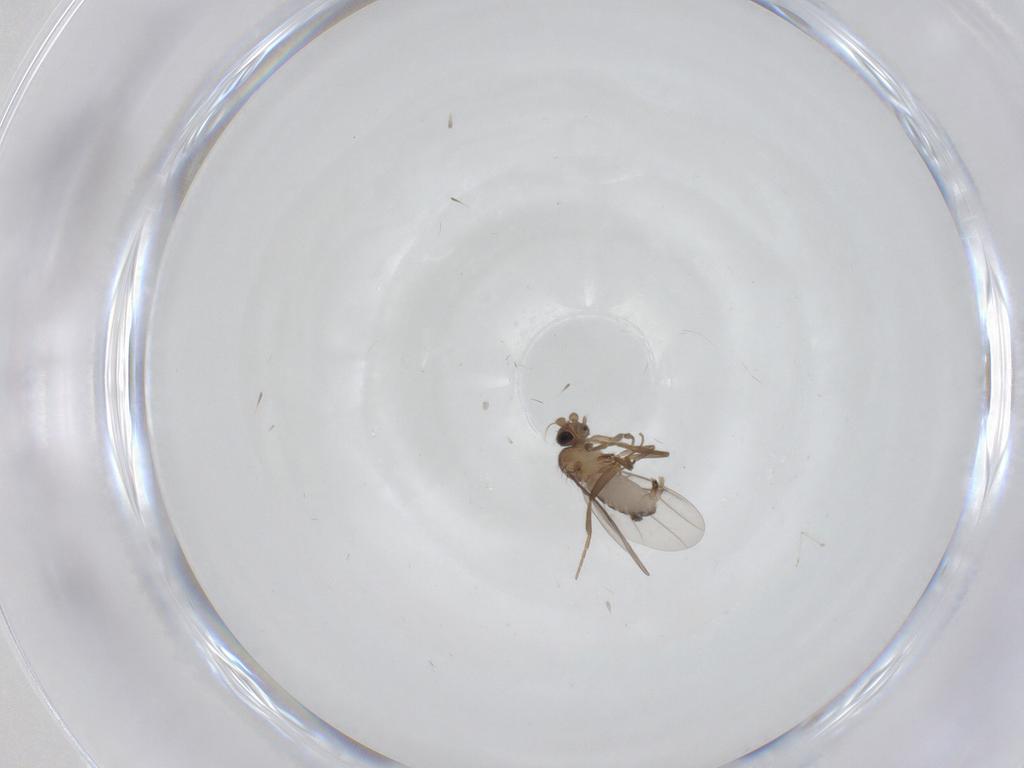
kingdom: Animalia
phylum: Arthropoda
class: Insecta
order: Diptera
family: Cecidomyiidae
